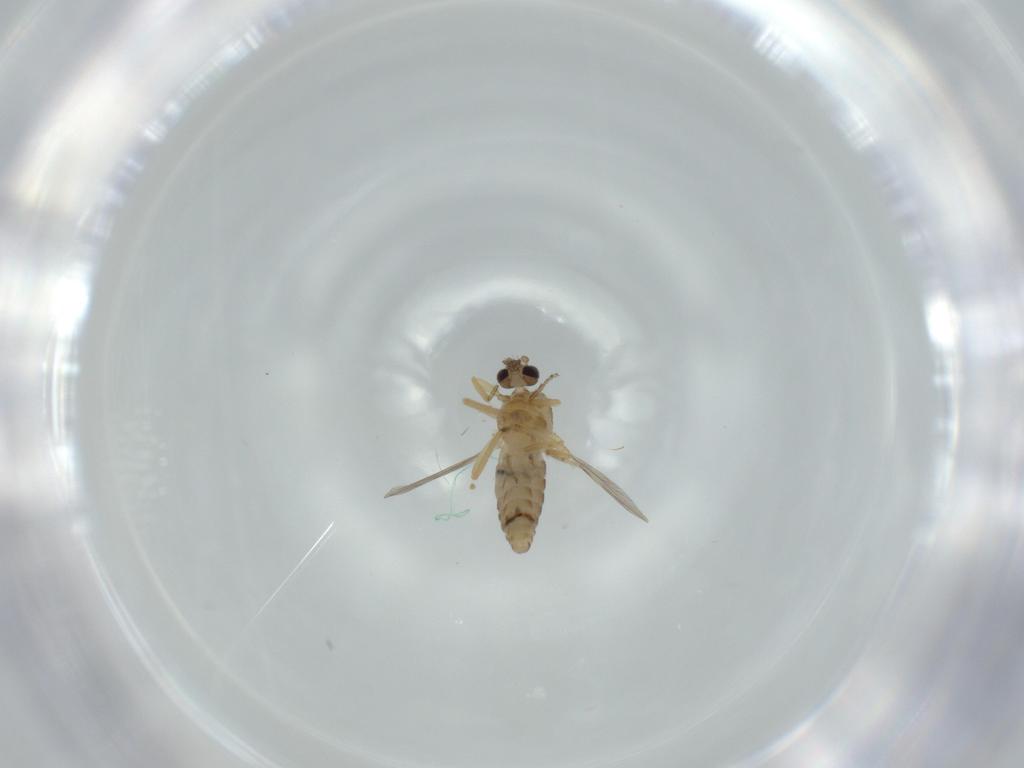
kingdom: Animalia
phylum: Arthropoda
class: Insecta
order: Diptera
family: Ceratopogonidae
